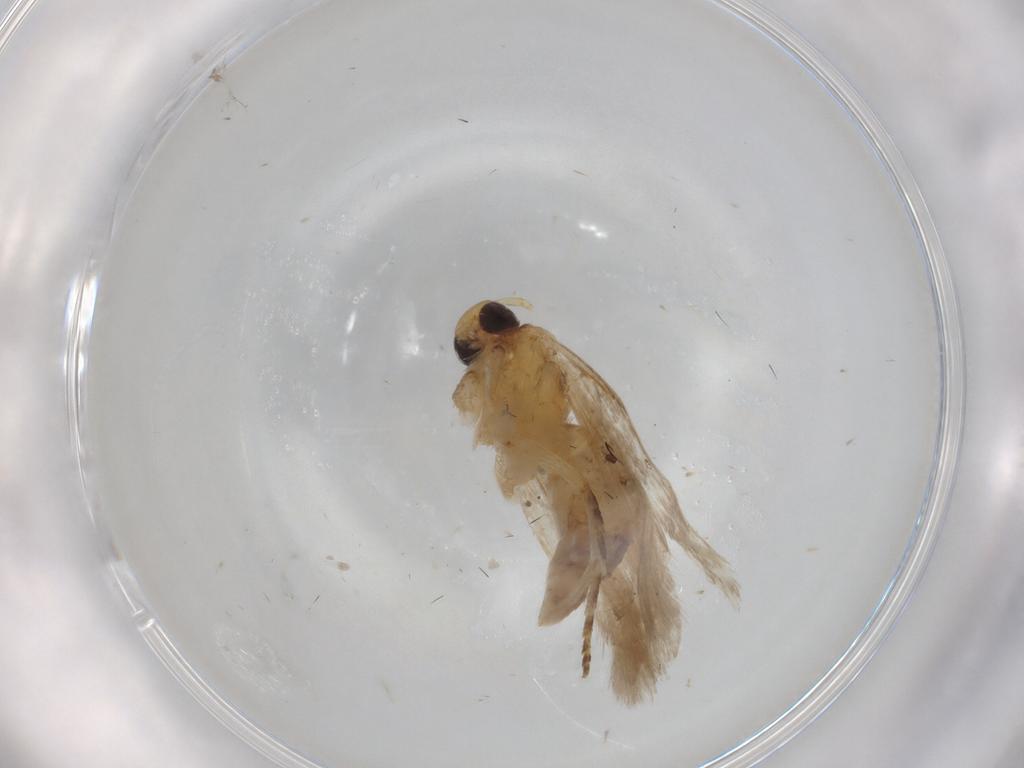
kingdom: Animalia
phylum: Arthropoda
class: Insecta
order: Lepidoptera
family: Gelechiidae
